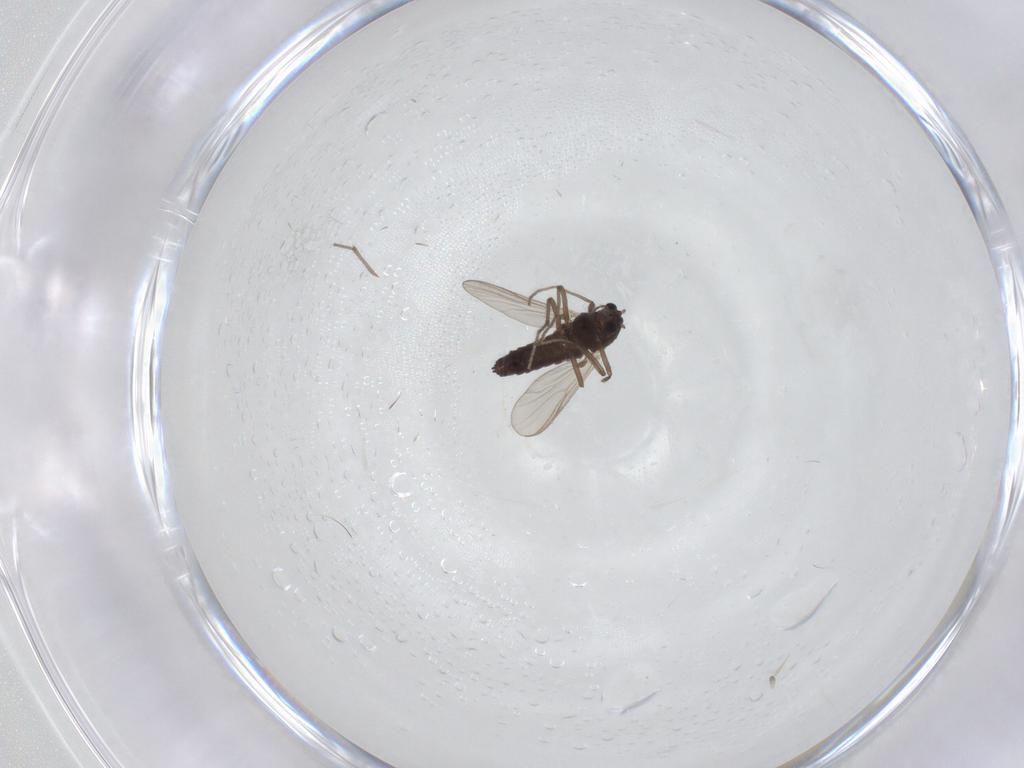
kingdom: Animalia
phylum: Arthropoda
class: Insecta
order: Diptera
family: Chironomidae
